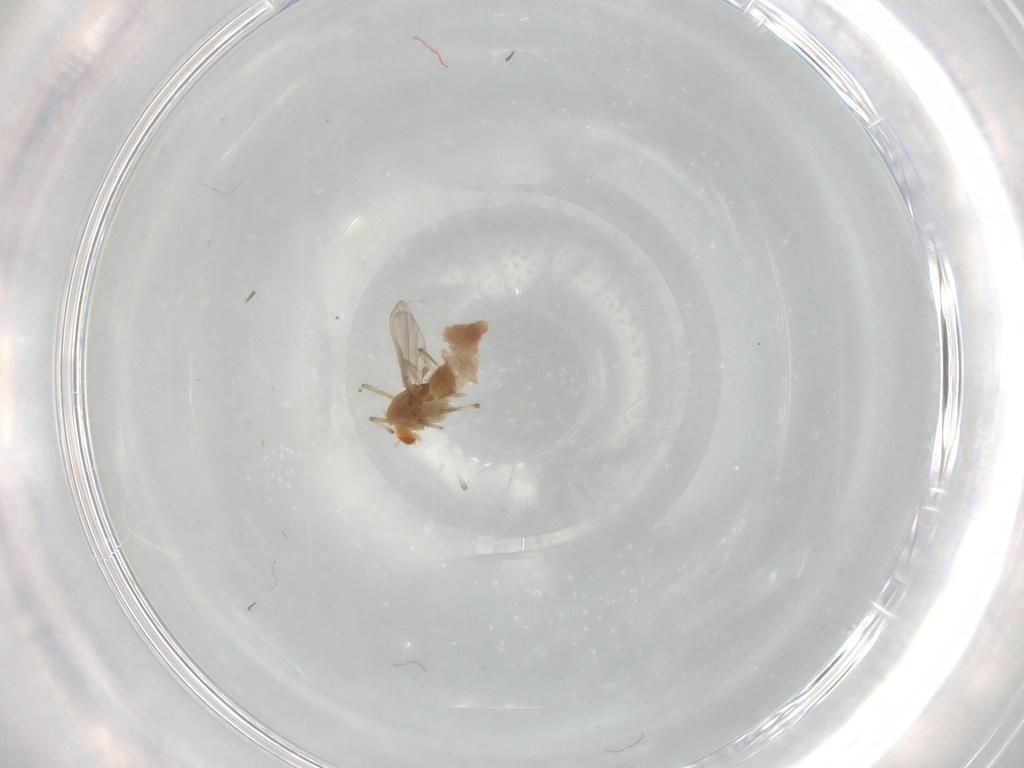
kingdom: Animalia
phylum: Arthropoda
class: Insecta
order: Diptera
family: Chironomidae
